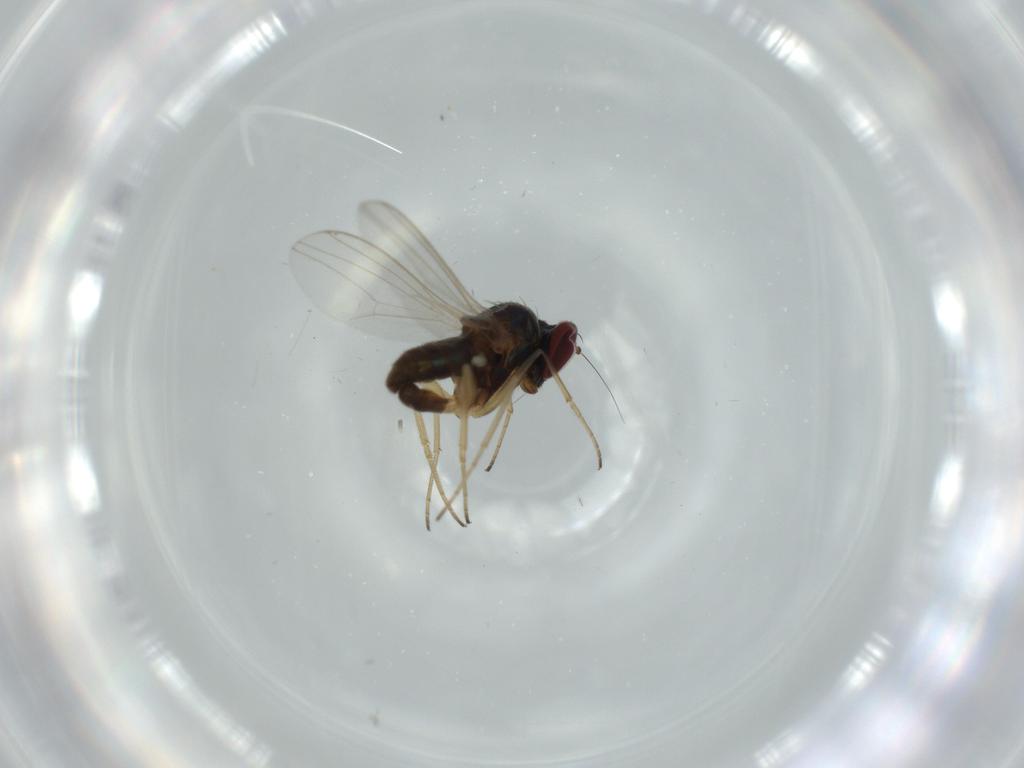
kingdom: Animalia
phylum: Arthropoda
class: Insecta
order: Diptera
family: Dolichopodidae
